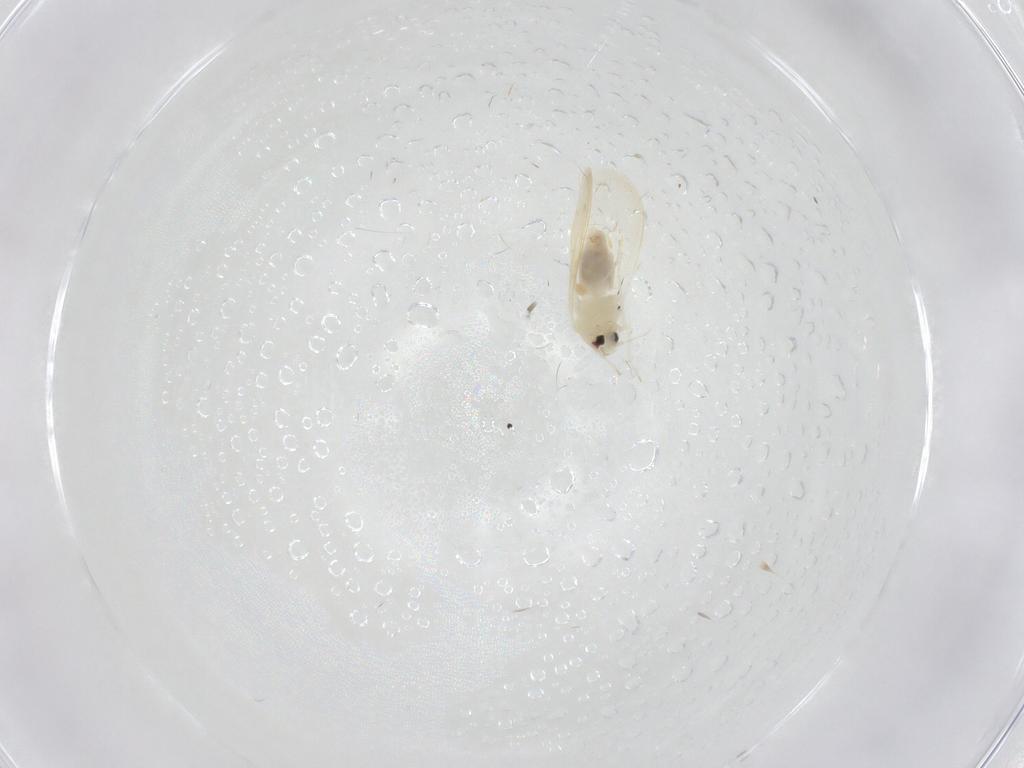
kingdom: Animalia
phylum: Arthropoda
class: Insecta
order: Hemiptera
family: Aleyrodidae
